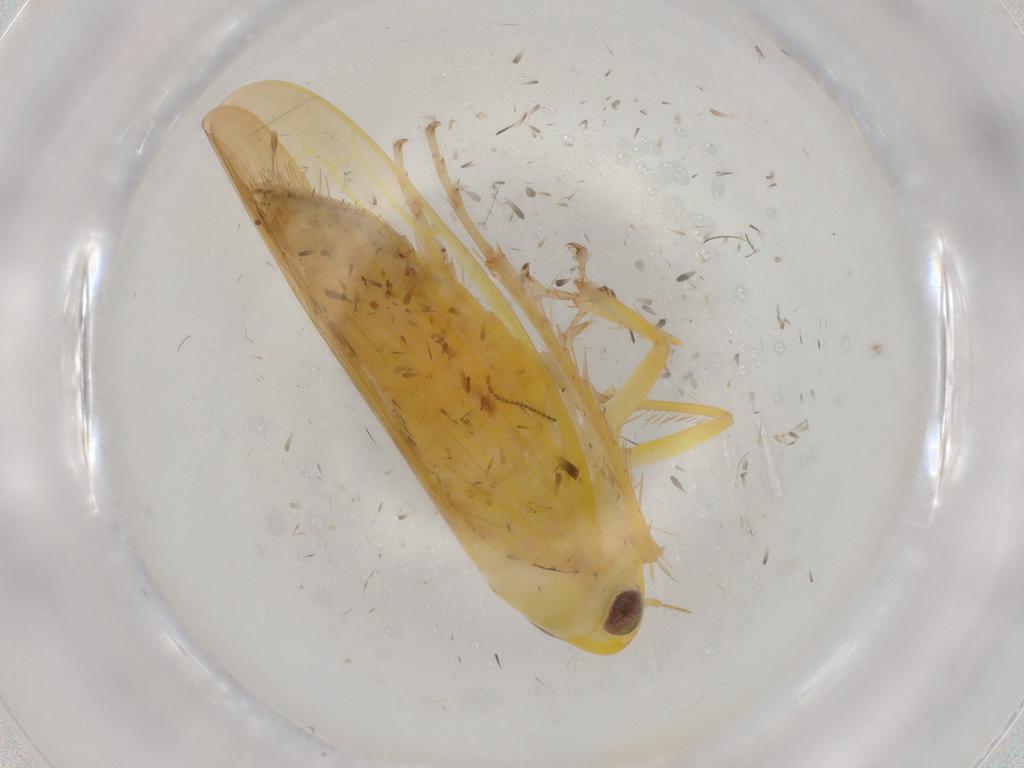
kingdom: Animalia
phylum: Arthropoda
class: Insecta
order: Hemiptera
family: Cicadellidae
